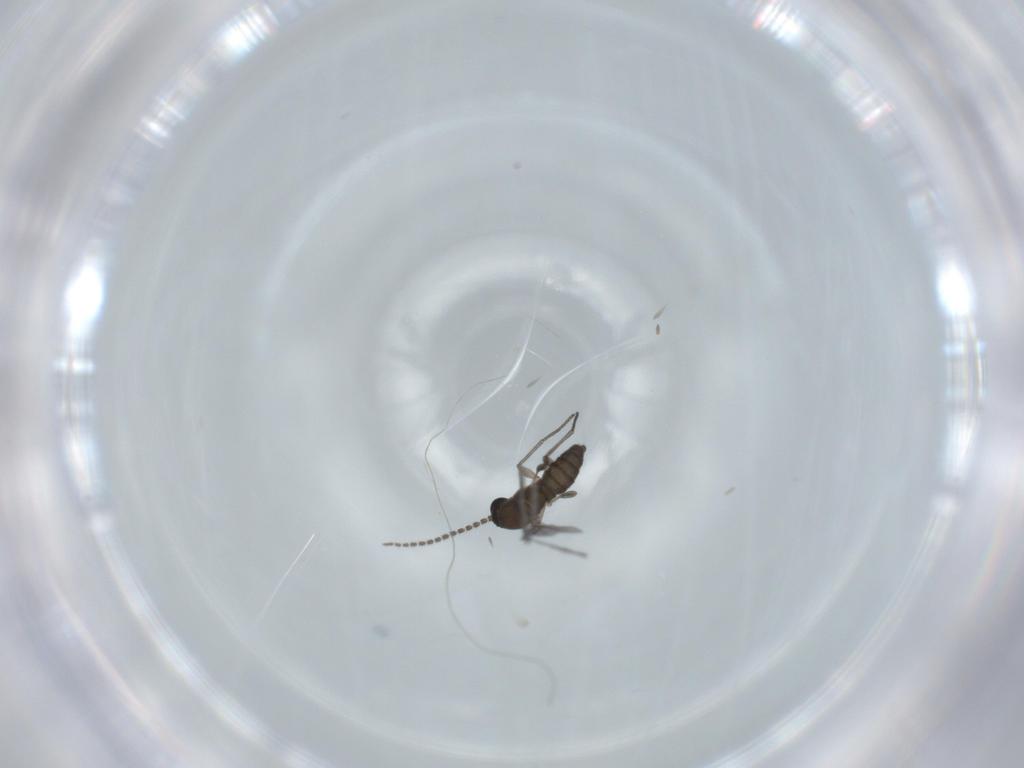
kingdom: Animalia
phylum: Arthropoda
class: Insecta
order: Diptera
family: Sciaridae
